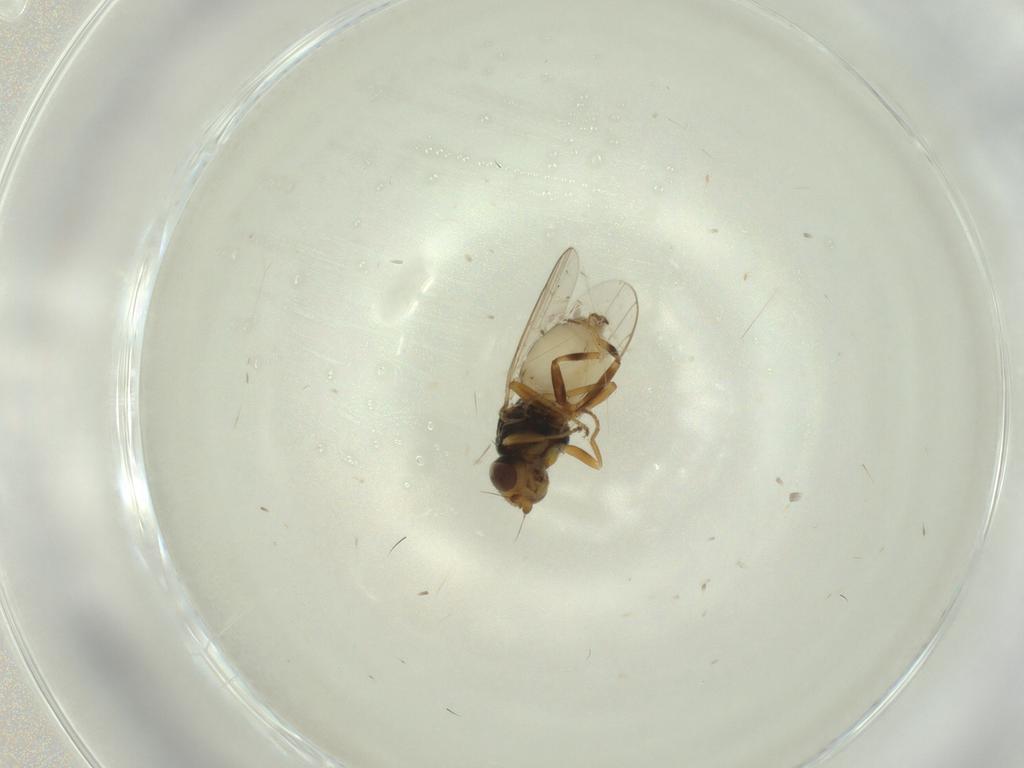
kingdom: Animalia
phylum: Arthropoda
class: Insecta
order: Diptera
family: Chloropidae
